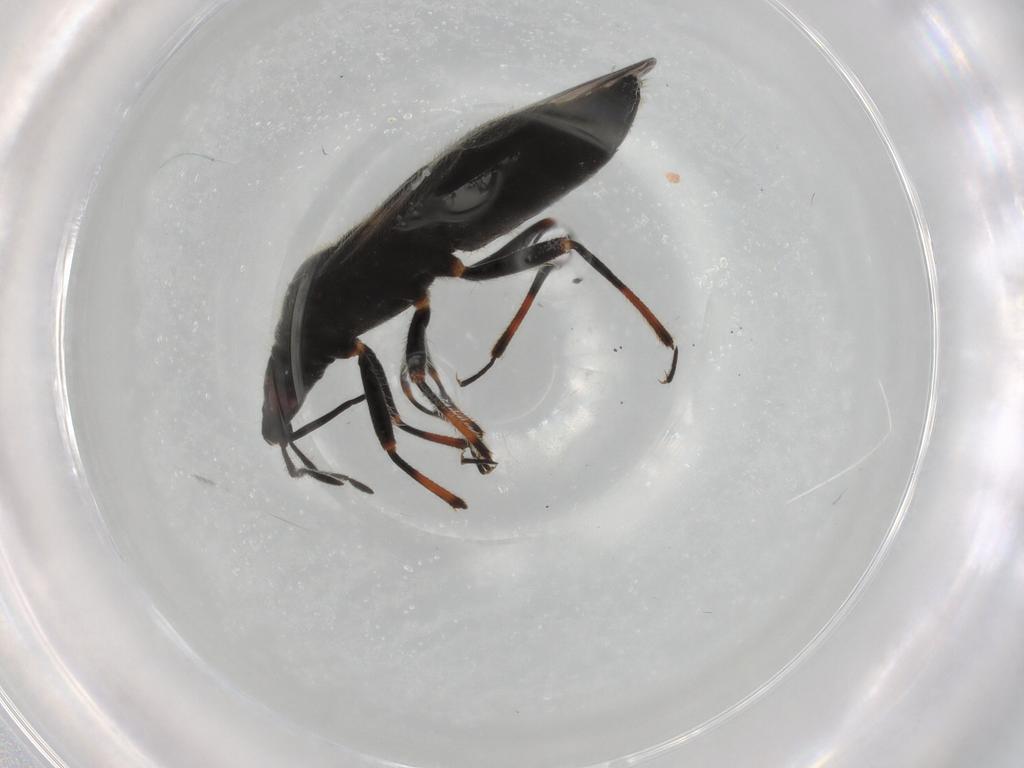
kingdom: Animalia
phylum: Arthropoda
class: Insecta
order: Hemiptera
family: Miridae
